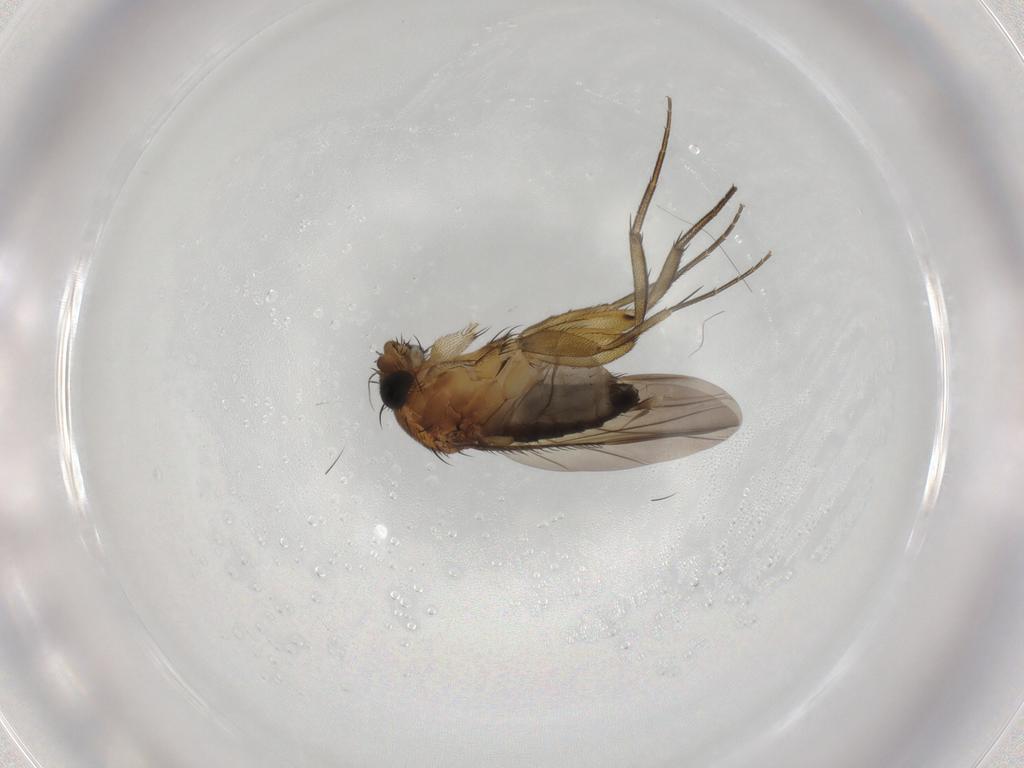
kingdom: Animalia
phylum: Arthropoda
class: Insecta
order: Diptera
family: Phoridae
